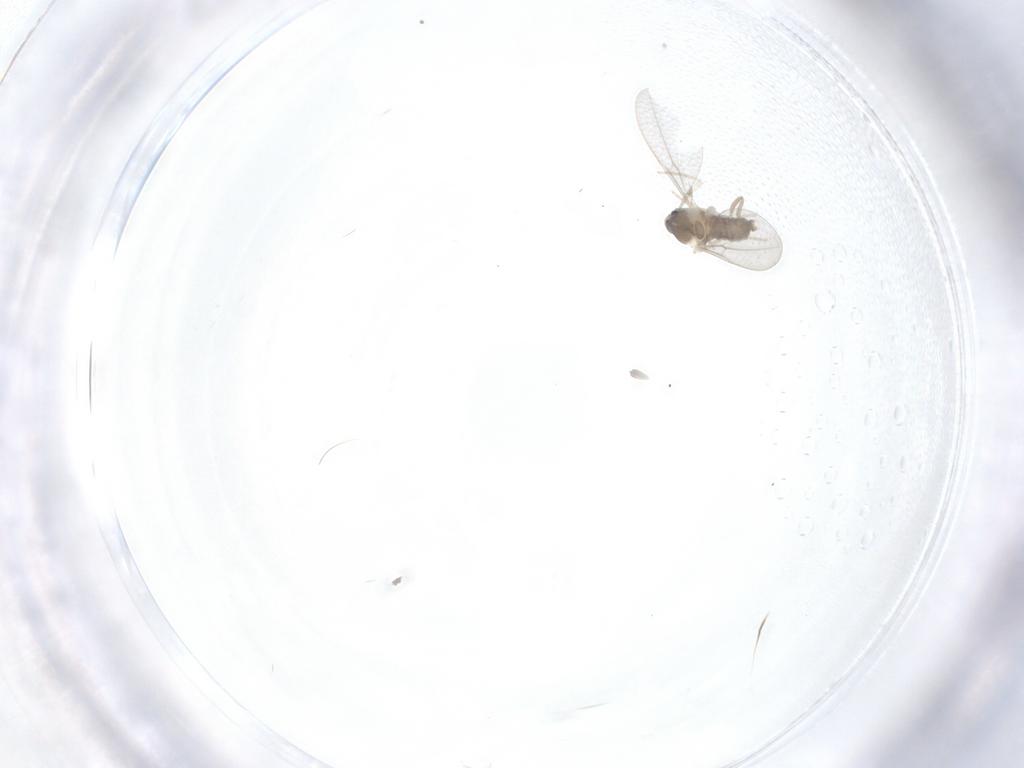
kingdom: Animalia
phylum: Arthropoda
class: Insecta
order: Diptera
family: Cecidomyiidae
